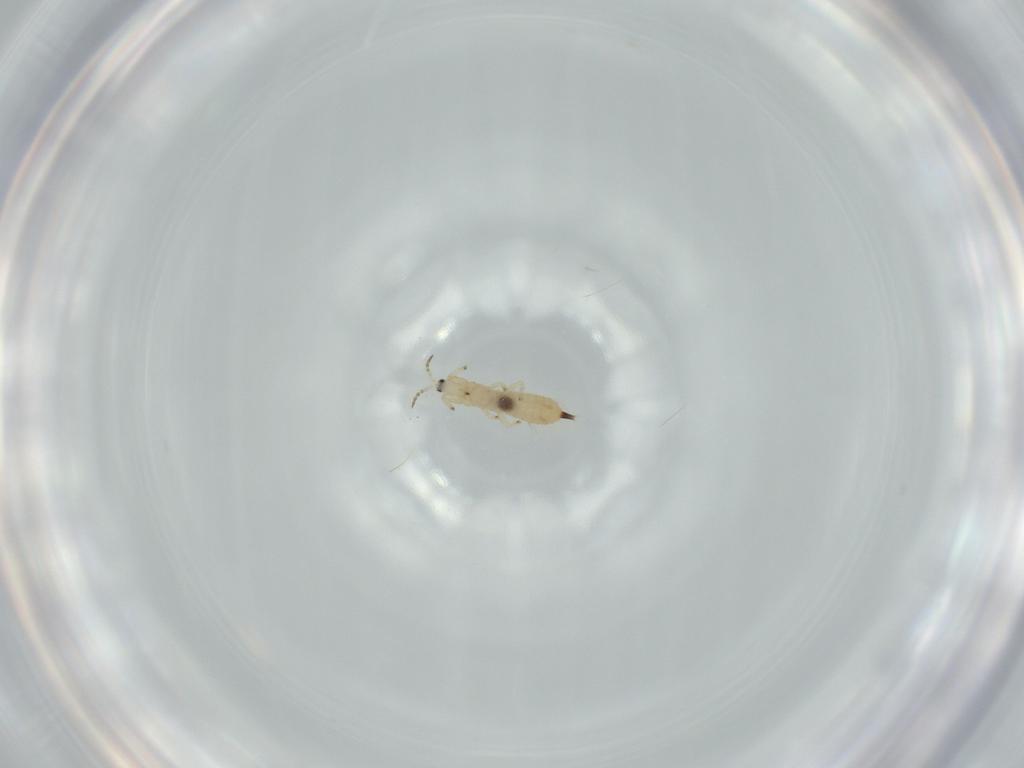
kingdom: Animalia
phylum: Arthropoda
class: Insecta
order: Thysanoptera
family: Phlaeothripidae
